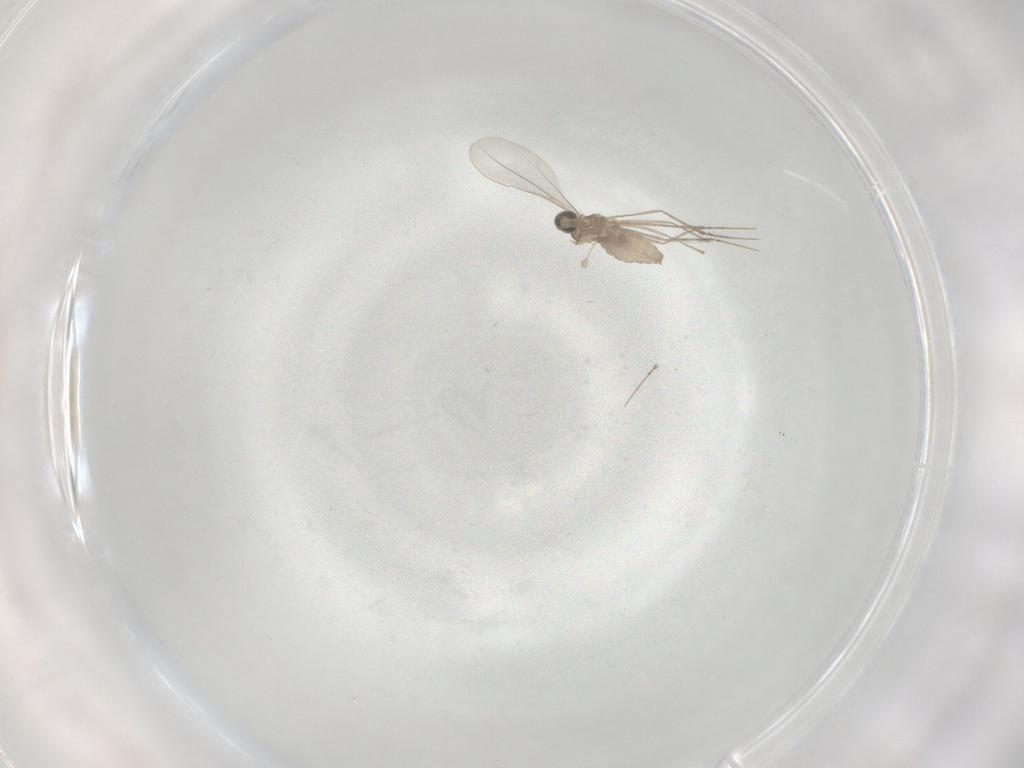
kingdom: Animalia
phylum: Arthropoda
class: Insecta
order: Diptera
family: Cecidomyiidae
